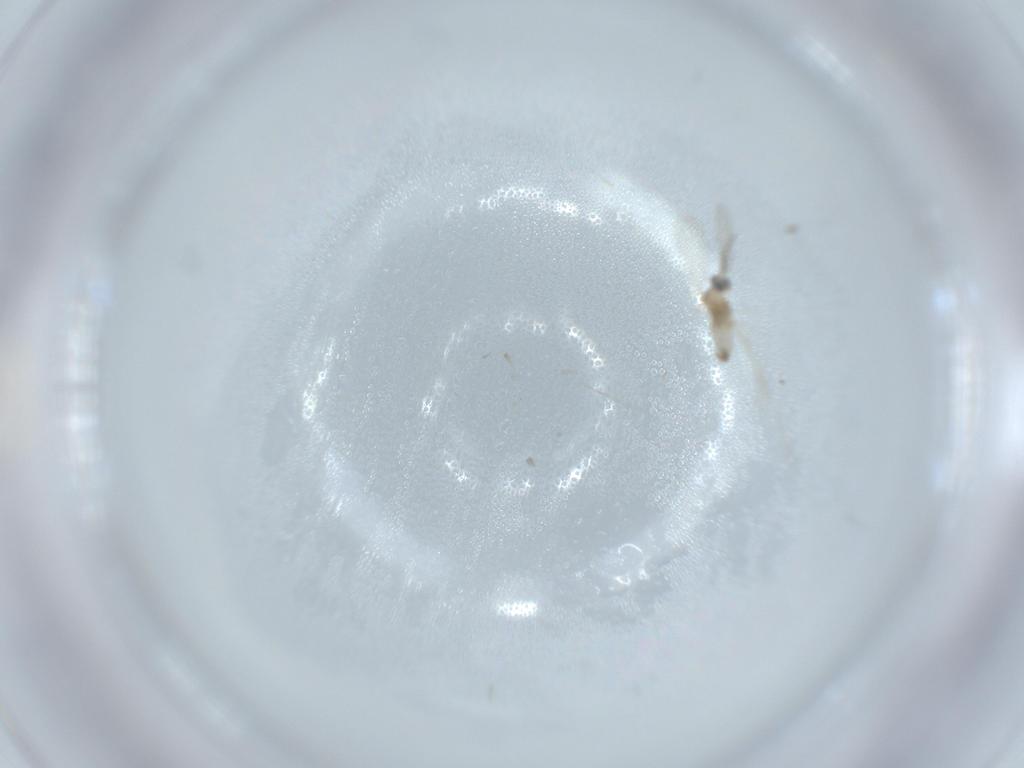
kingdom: Animalia
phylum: Arthropoda
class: Insecta
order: Diptera
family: Cecidomyiidae
